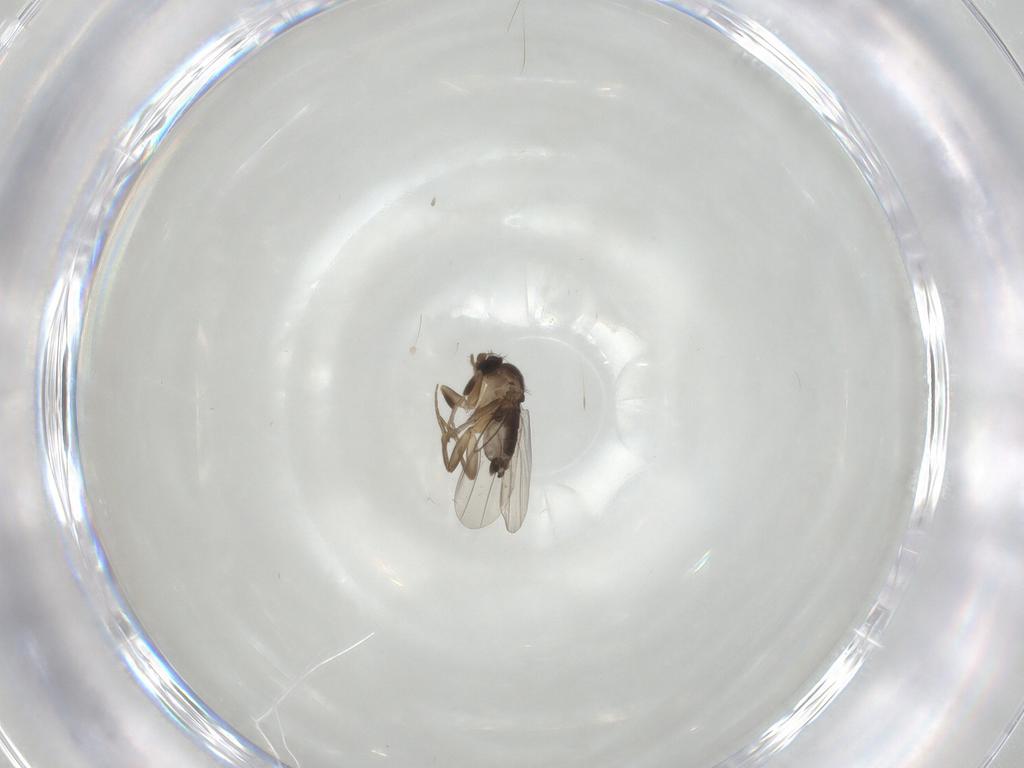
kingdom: Animalia
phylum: Arthropoda
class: Insecta
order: Diptera
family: Phoridae
